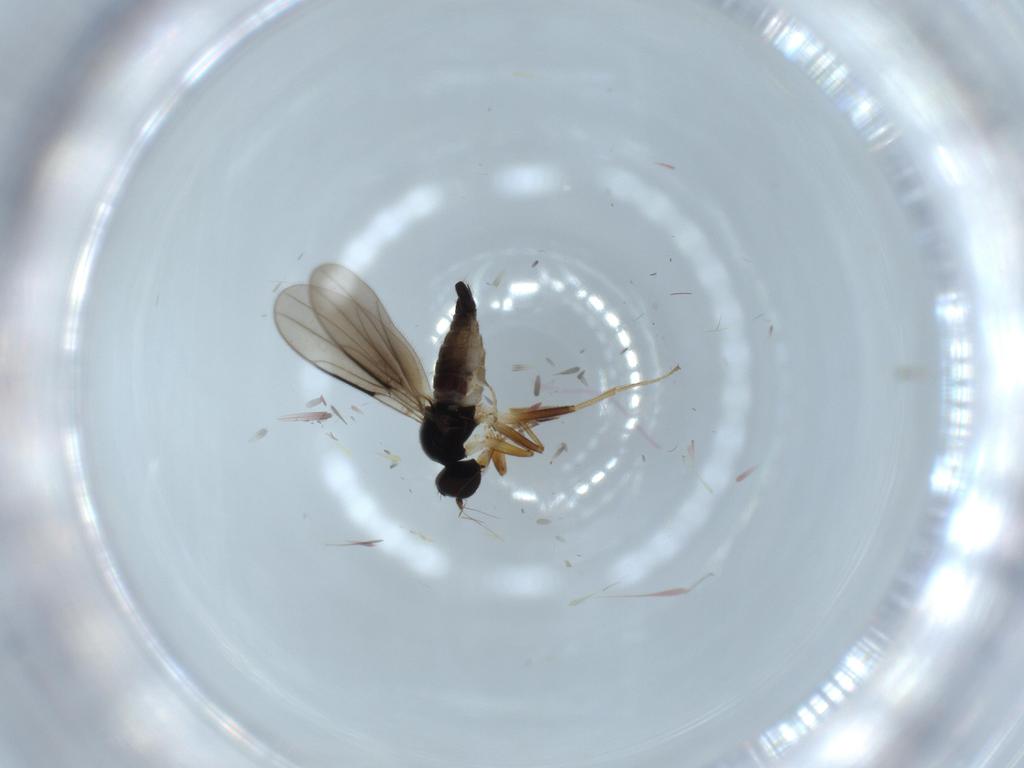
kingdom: Animalia
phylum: Arthropoda
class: Insecta
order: Diptera
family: Hybotidae
